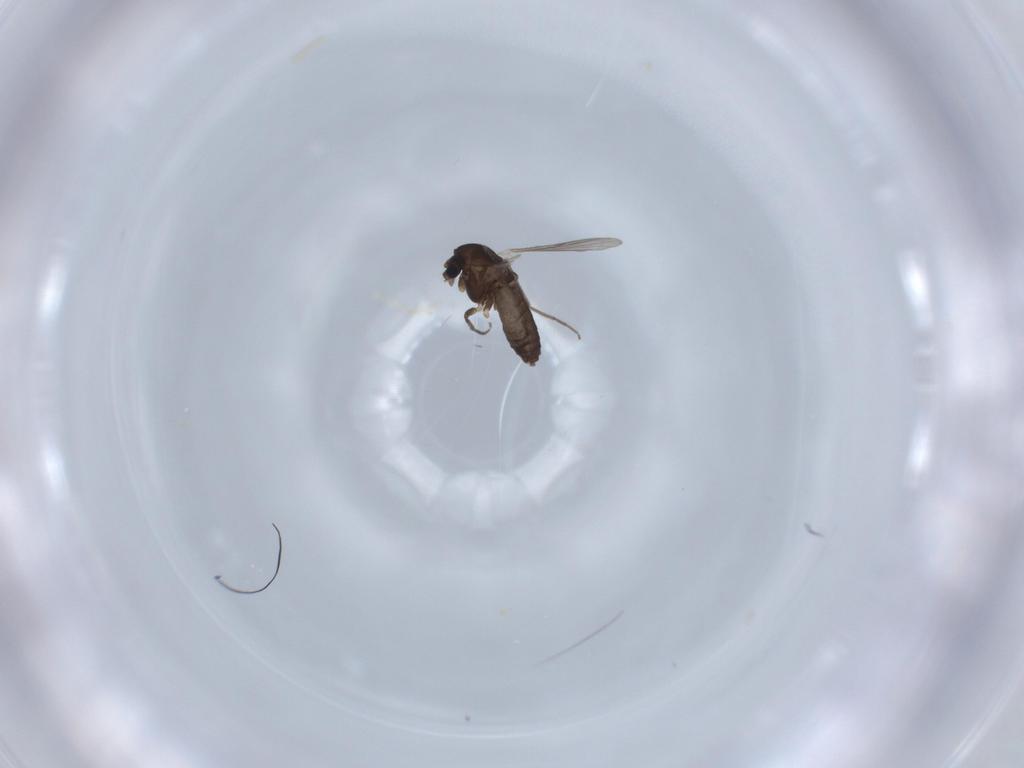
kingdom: Animalia
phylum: Arthropoda
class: Insecta
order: Diptera
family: Chironomidae
